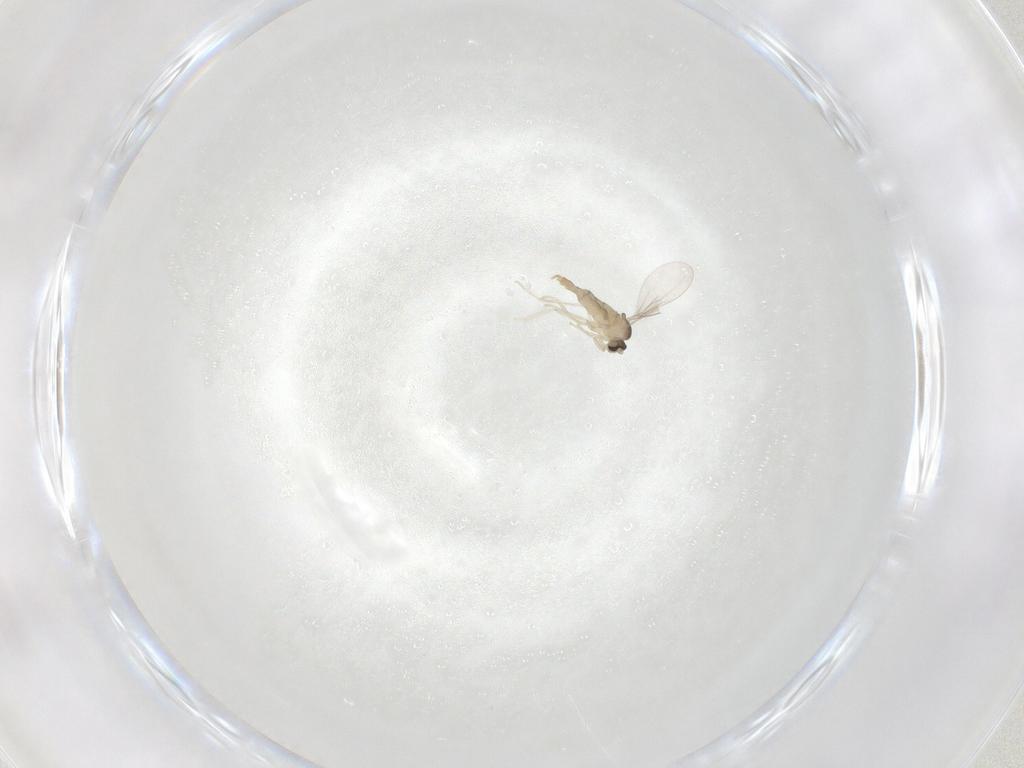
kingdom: Animalia
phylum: Arthropoda
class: Insecta
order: Diptera
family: Cecidomyiidae
